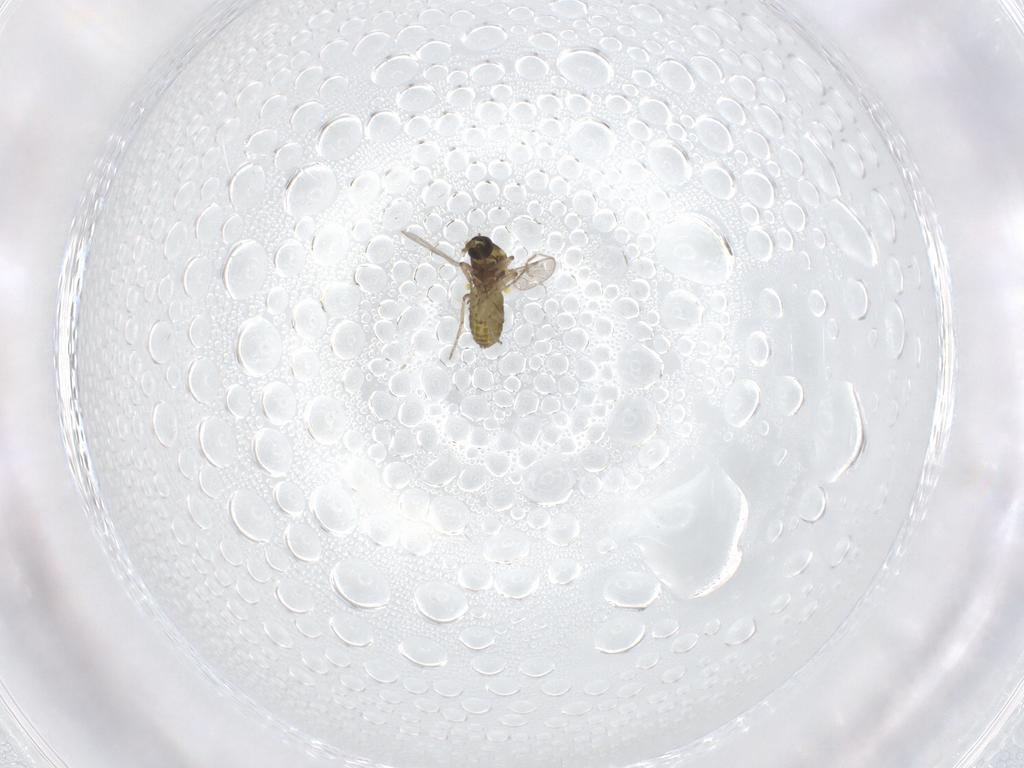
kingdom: Animalia
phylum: Arthropoda
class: Insecta
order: Diptera
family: Ceratopogonidae
